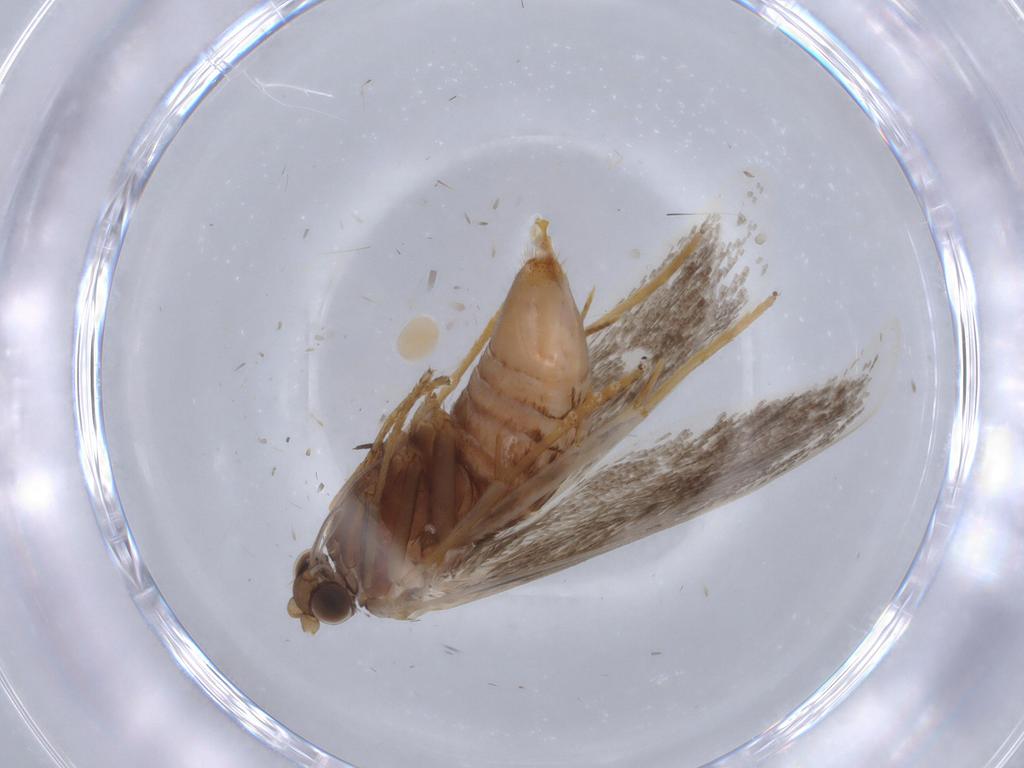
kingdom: Animalia
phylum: Arthropoda
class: Insecta
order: Lepidoptera
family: Adelidae
